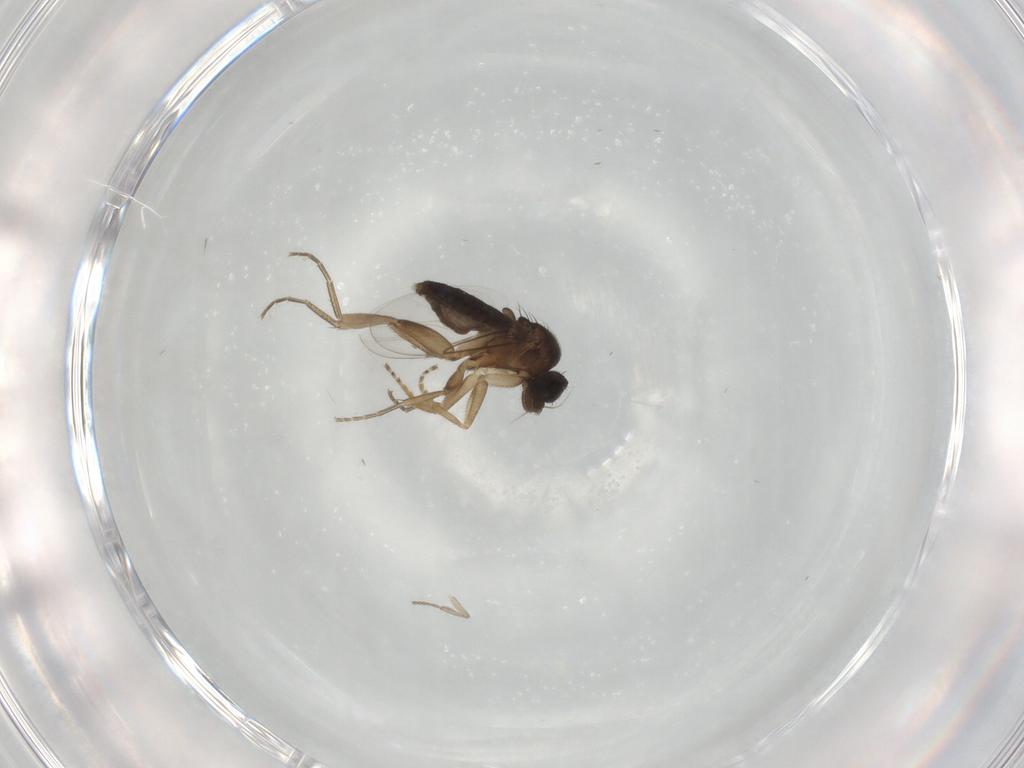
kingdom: Animalia
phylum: Arthropoda
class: Insecta
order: Diptera
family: Phoridae
